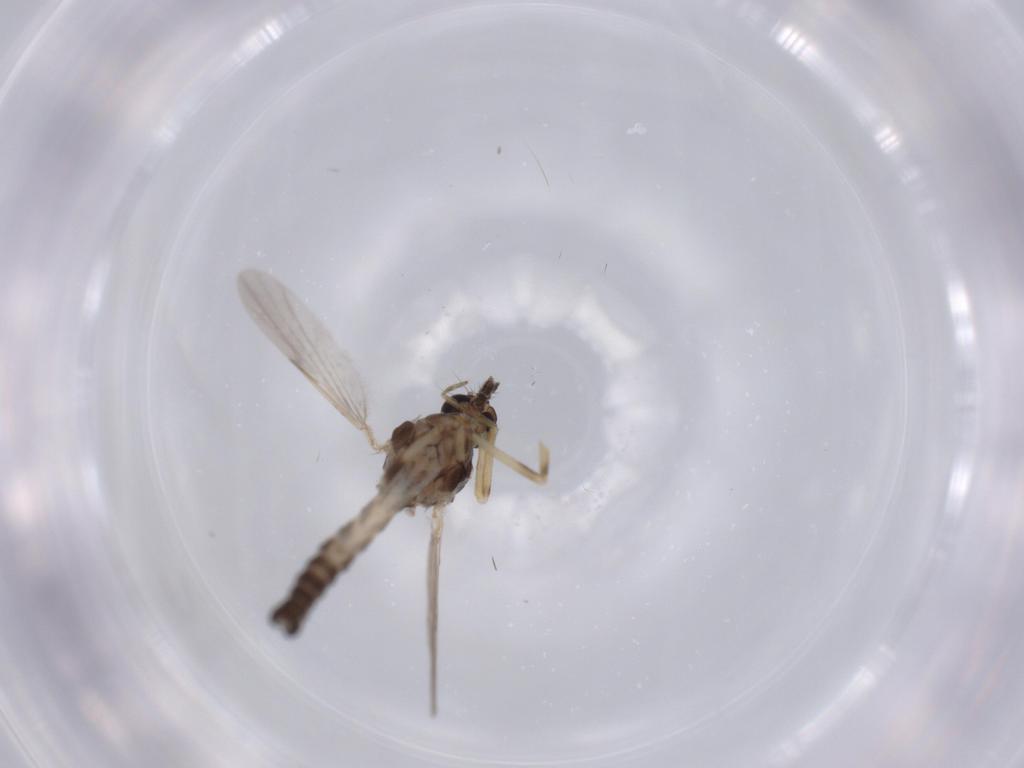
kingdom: Animalia
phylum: Arthropoda
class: Insecta
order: Diptera
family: Ceratopogonidae
